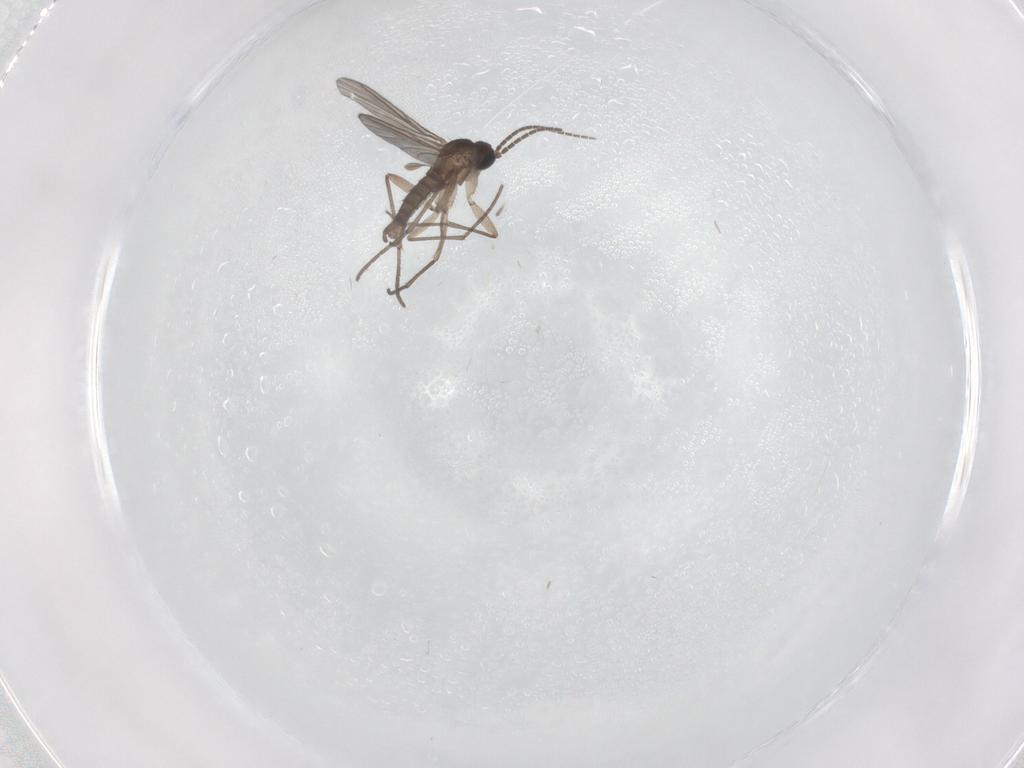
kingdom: Animalia
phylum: Arthropoda
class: Insecta
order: Diptera
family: Sciaridae
